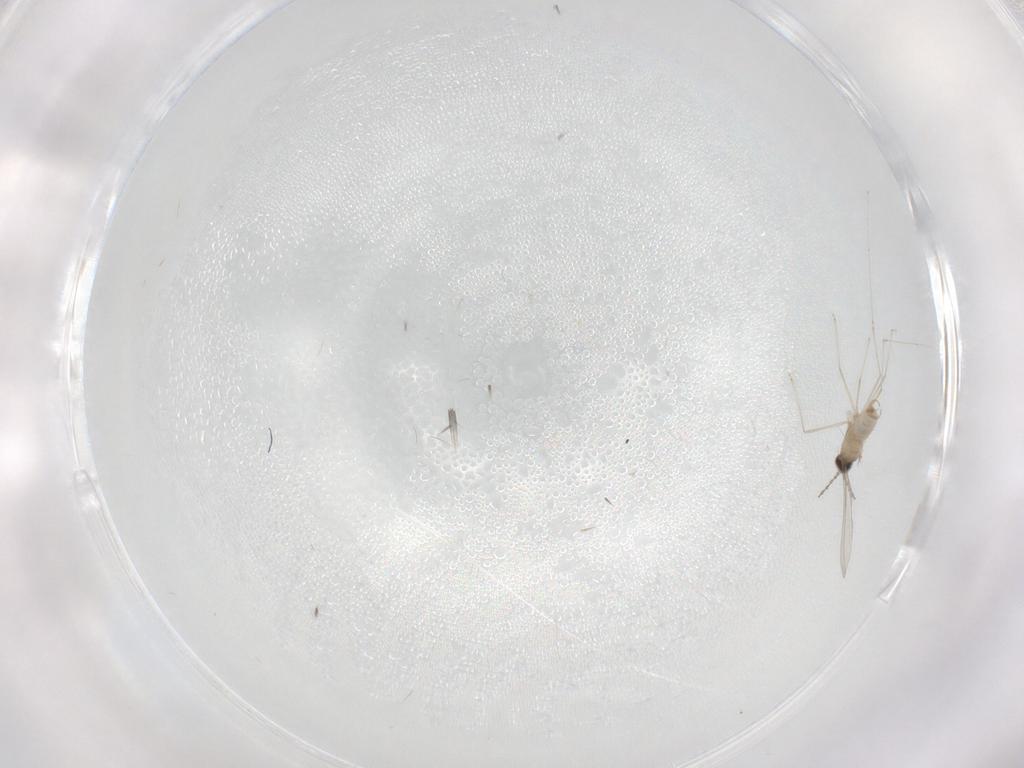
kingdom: Animalia
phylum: Arthropoda
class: Insecta
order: Diptera
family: Cecidomyiidae
